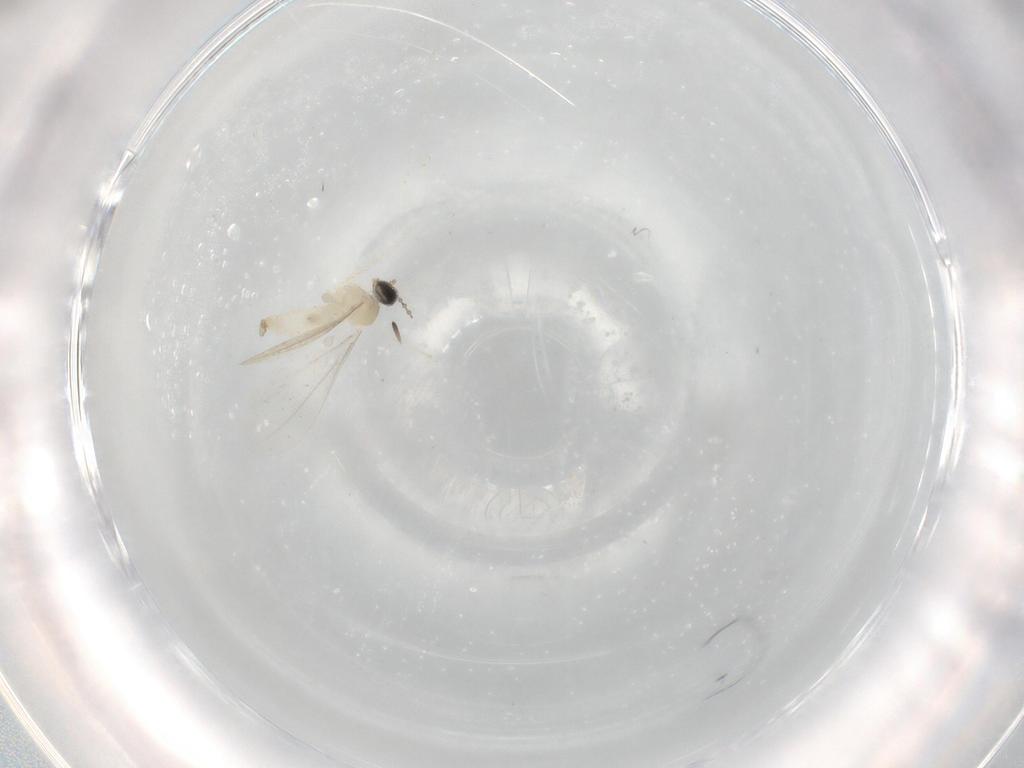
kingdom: Animalia
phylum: Arthropoda
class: Insecta
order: Diptera
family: Cecidomyiidae
